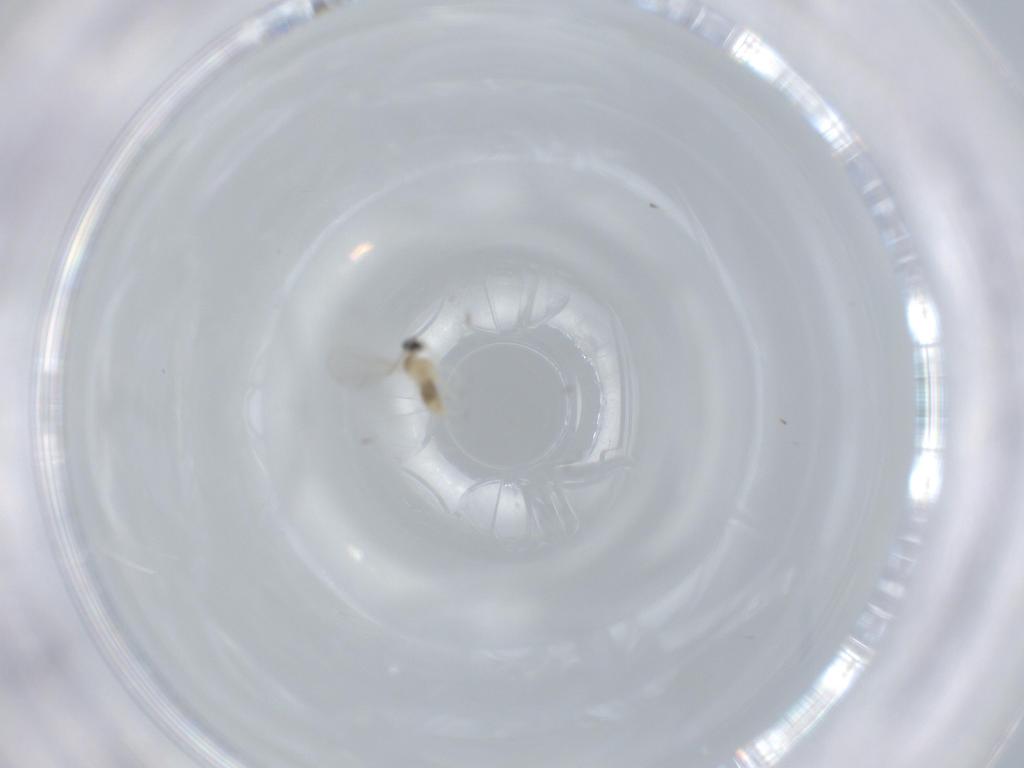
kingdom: Animalia
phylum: Arthropoda
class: Insecta
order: Diptera
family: Cecidomyiidae
